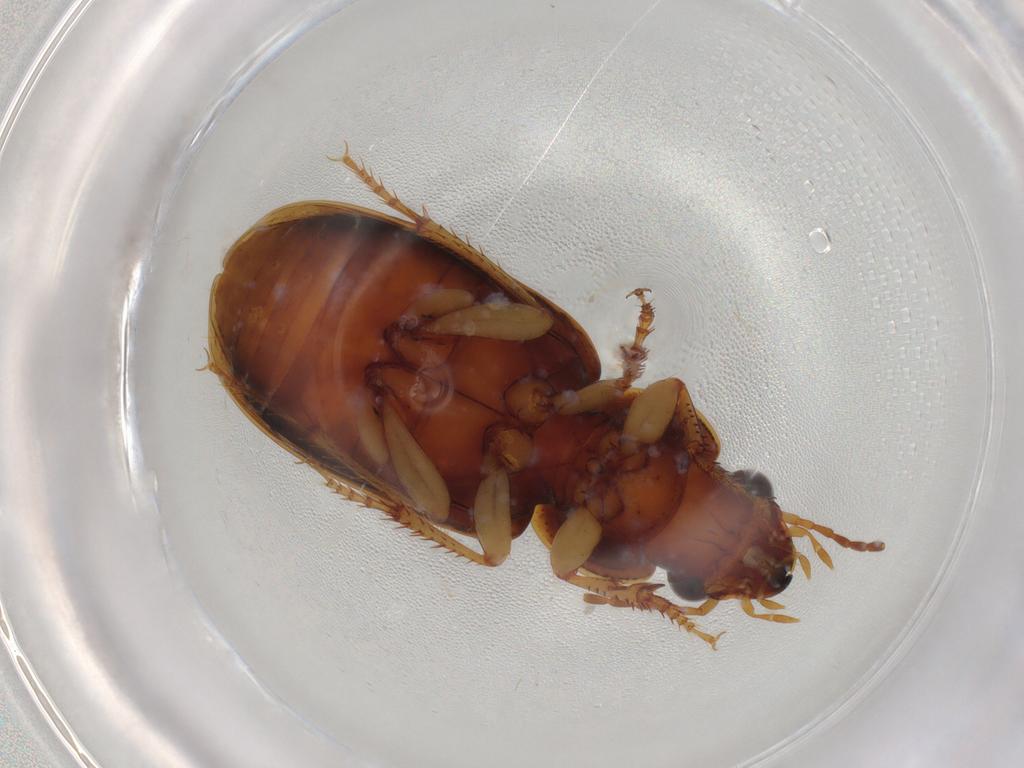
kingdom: Animalia
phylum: Arthropoda
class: Insecta
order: Coleoptera
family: Carabidae
